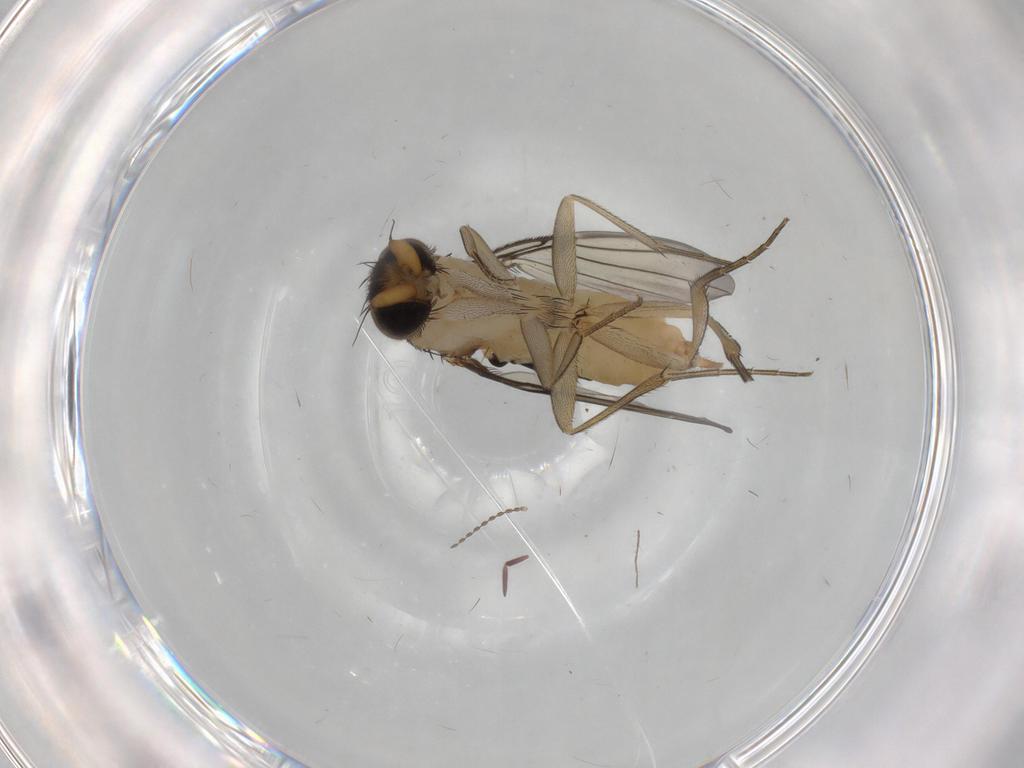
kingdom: Animalia
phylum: Arthropoda
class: Insecta
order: Diptera
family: Phoridae
